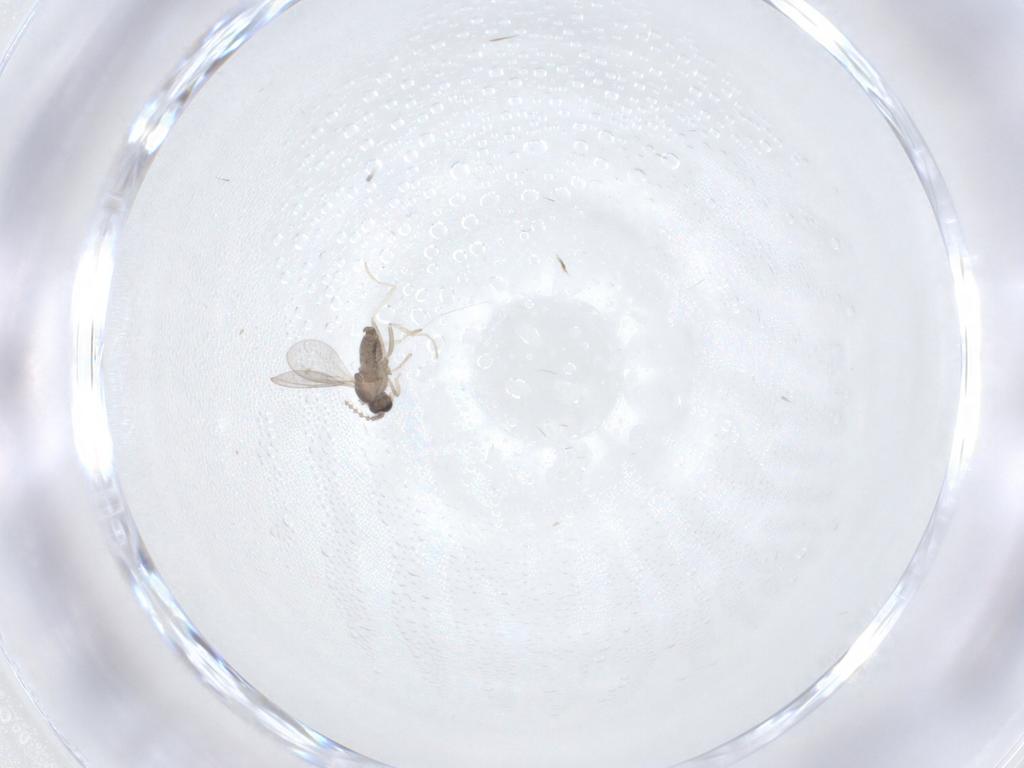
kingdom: Animalia
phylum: Arthropoda
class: Insecta
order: Diptera
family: Cecidomyiidae
